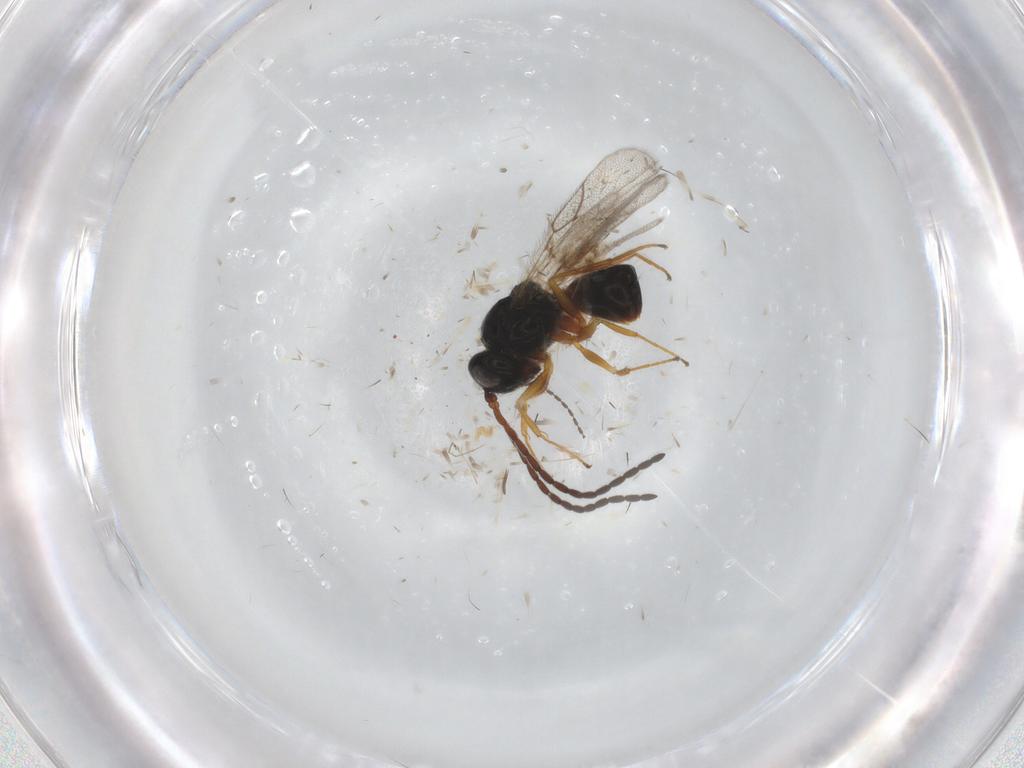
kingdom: Animalia
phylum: Arthropoda
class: Insecta
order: Hymenoptera
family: Figitidae
